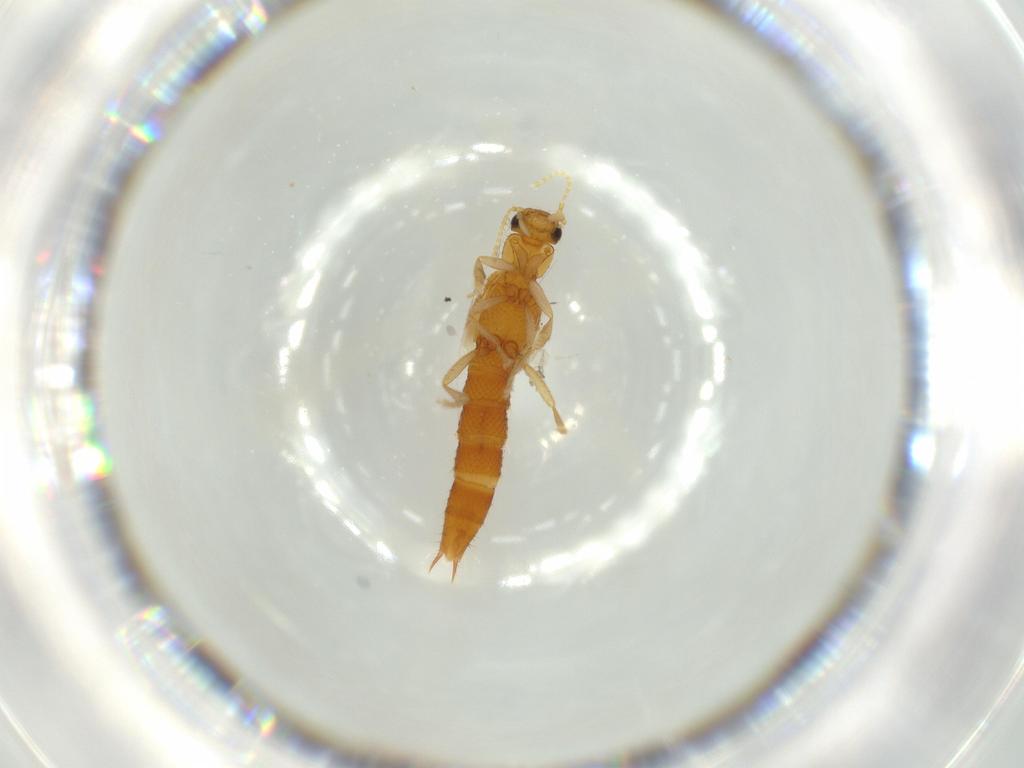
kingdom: Animalia
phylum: Arthropoda
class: Insecta
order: Coleoptera
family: Staphylinidae
